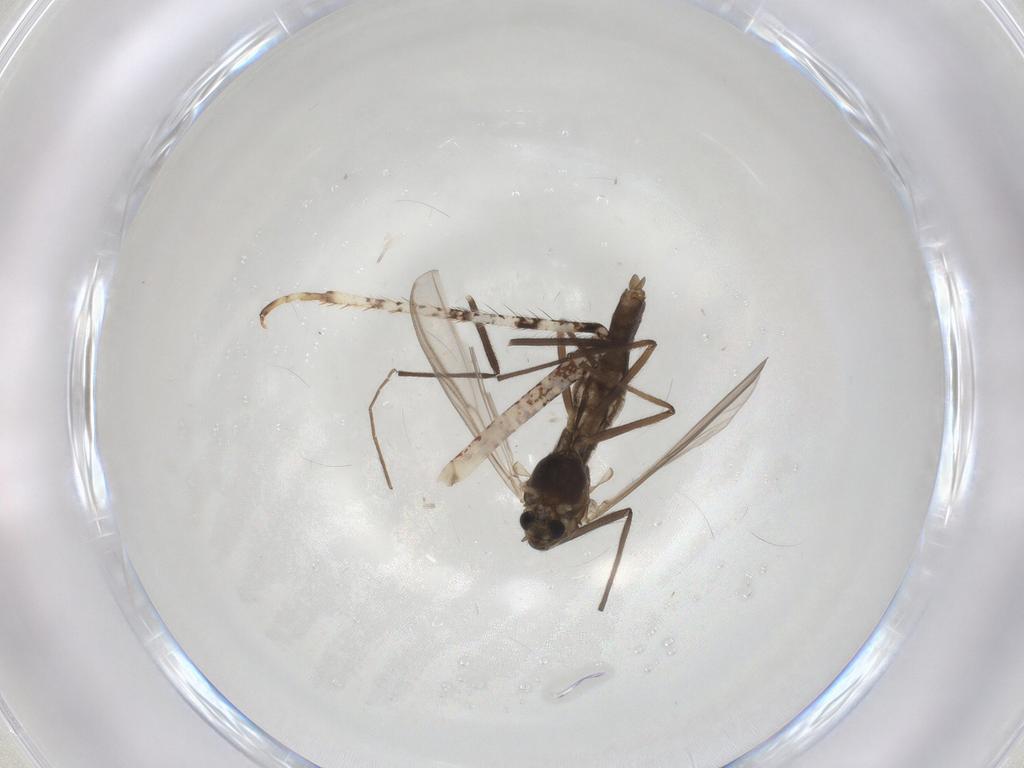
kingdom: Animalia
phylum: Arthropoda
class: Insecta
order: Diptera
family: Chironomidae
